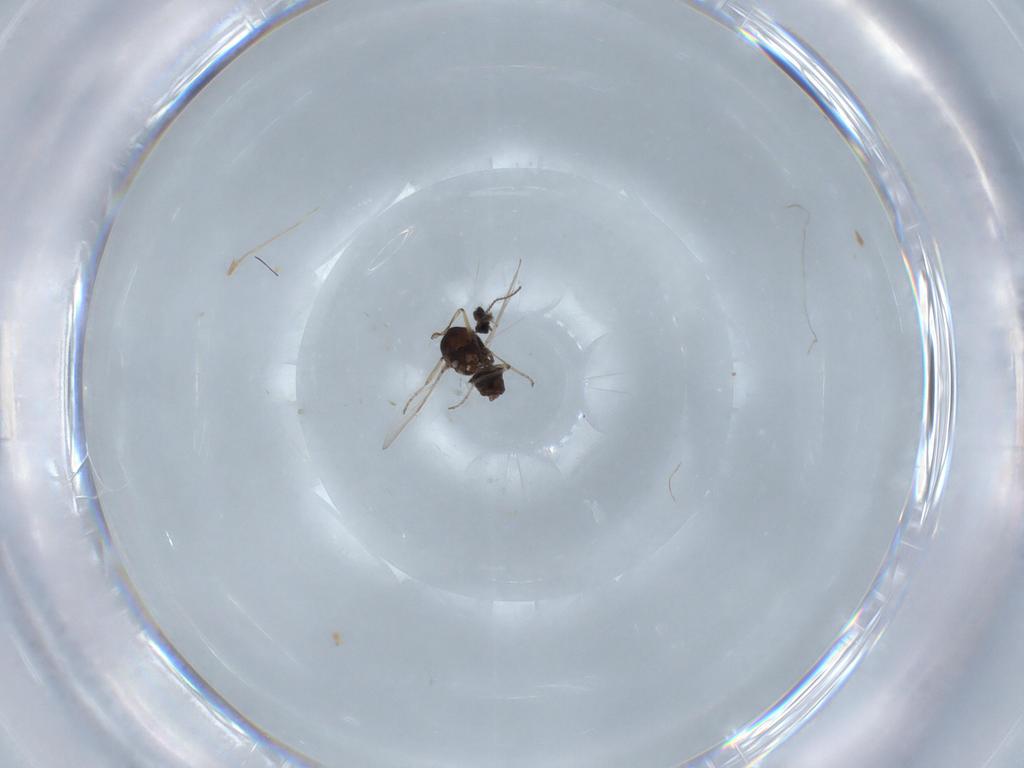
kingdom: Animalia
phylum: Arthropoda
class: Insecta
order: Diptera
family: Ceratopogonidae
